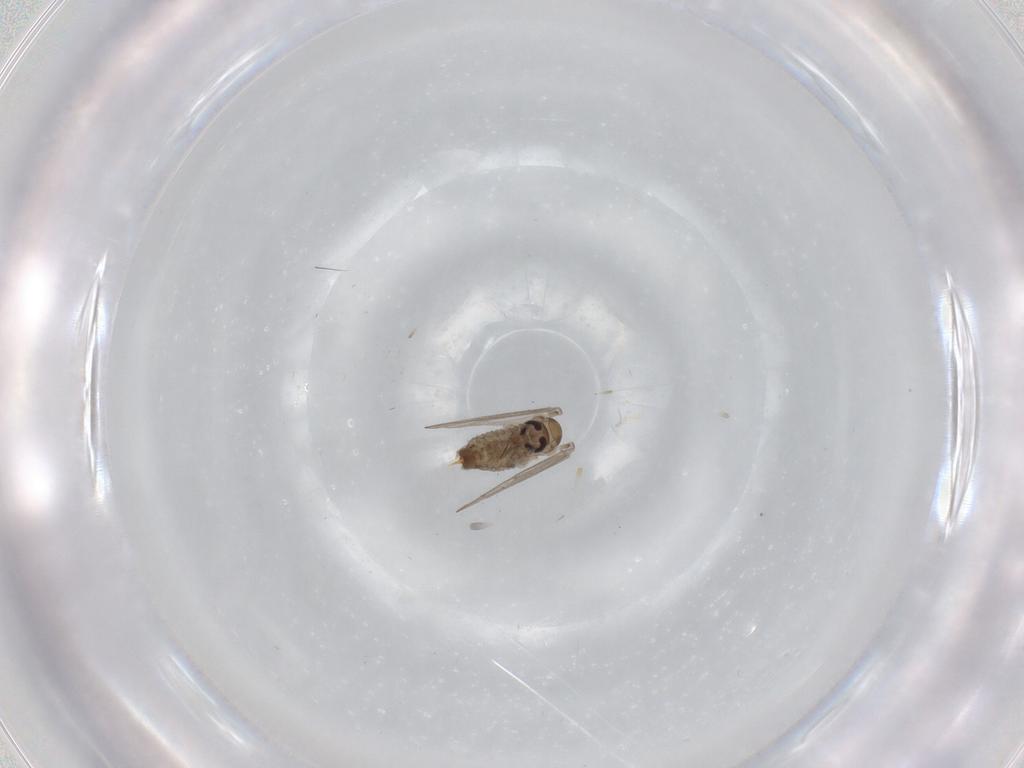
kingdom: Animalia
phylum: Arthropoda
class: Insecta
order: Diptera
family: Psychodidae
